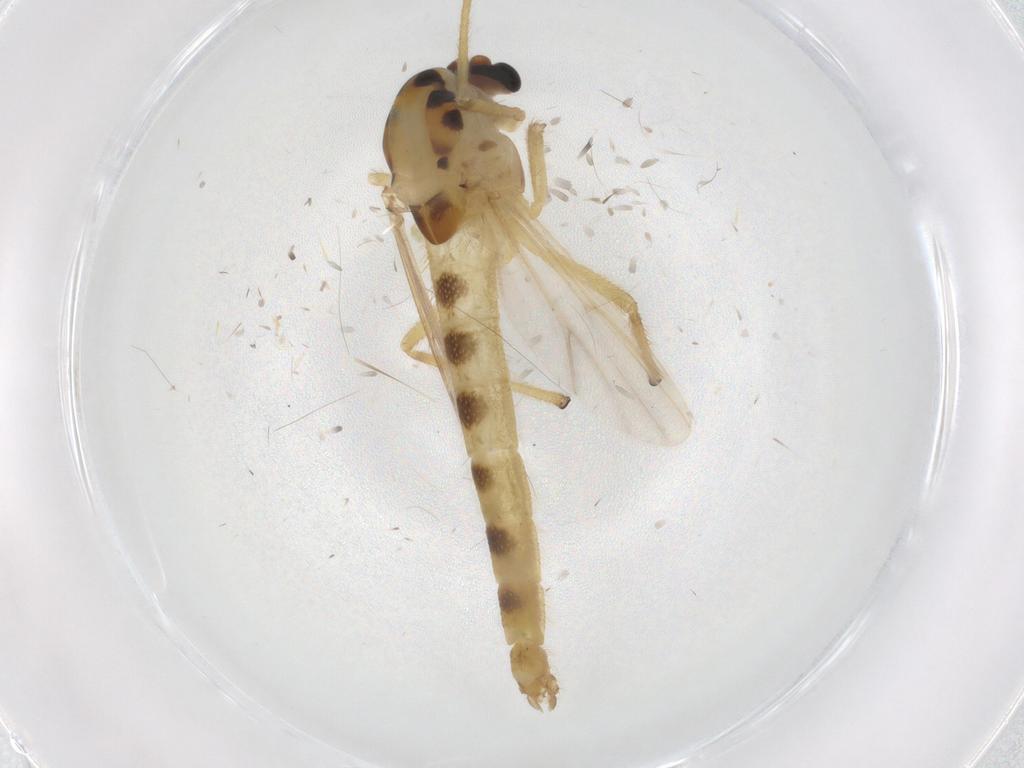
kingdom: Animalia
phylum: Arthropoda
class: Insecta
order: Diptera
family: Chironomidae
